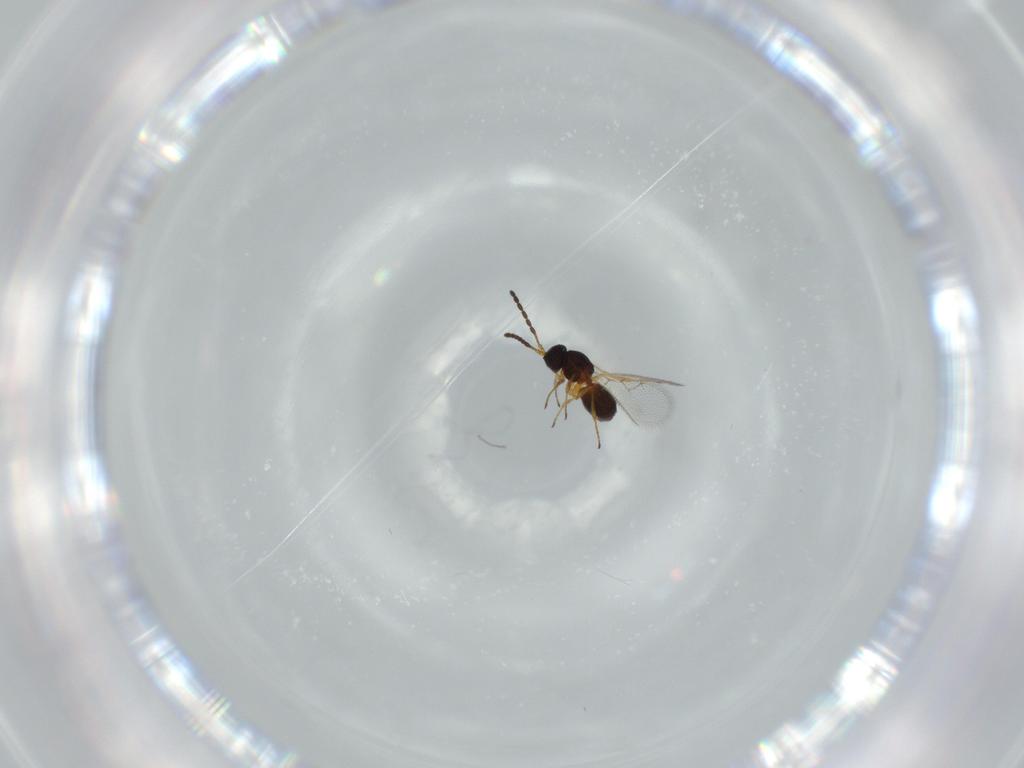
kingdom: Animalia
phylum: Arthropoda
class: Insecta
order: Hymenoptera
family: Figitidae
